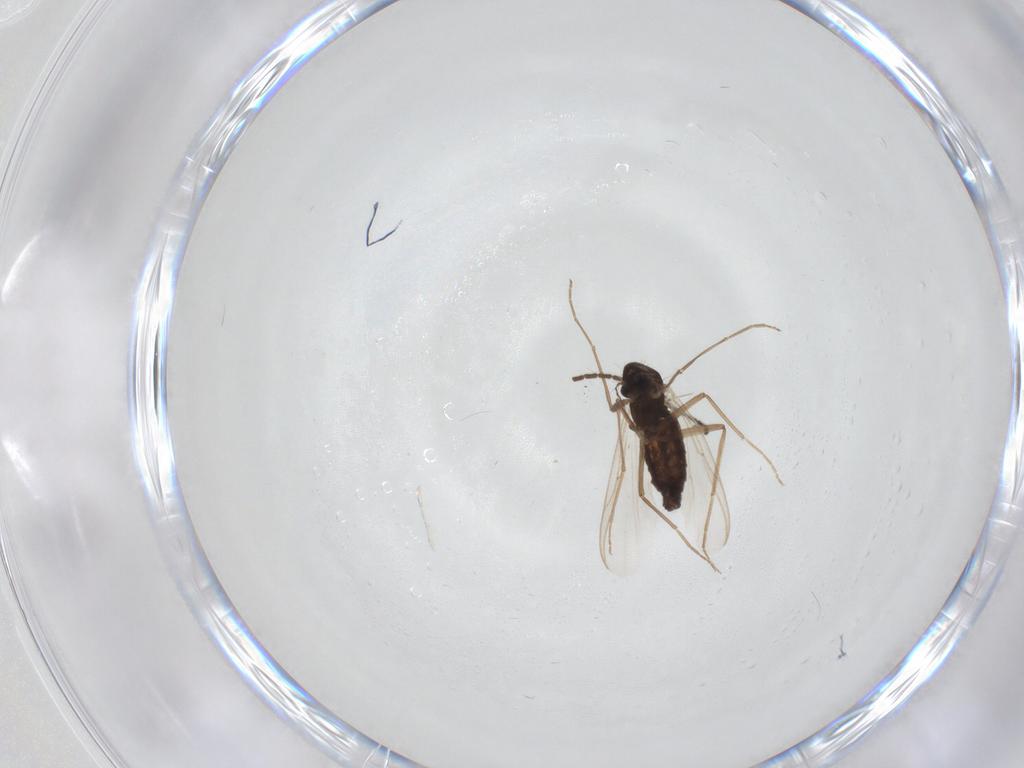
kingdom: Animalia
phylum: Arthropoda
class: Insecta
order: Diptera
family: Chironomidae
